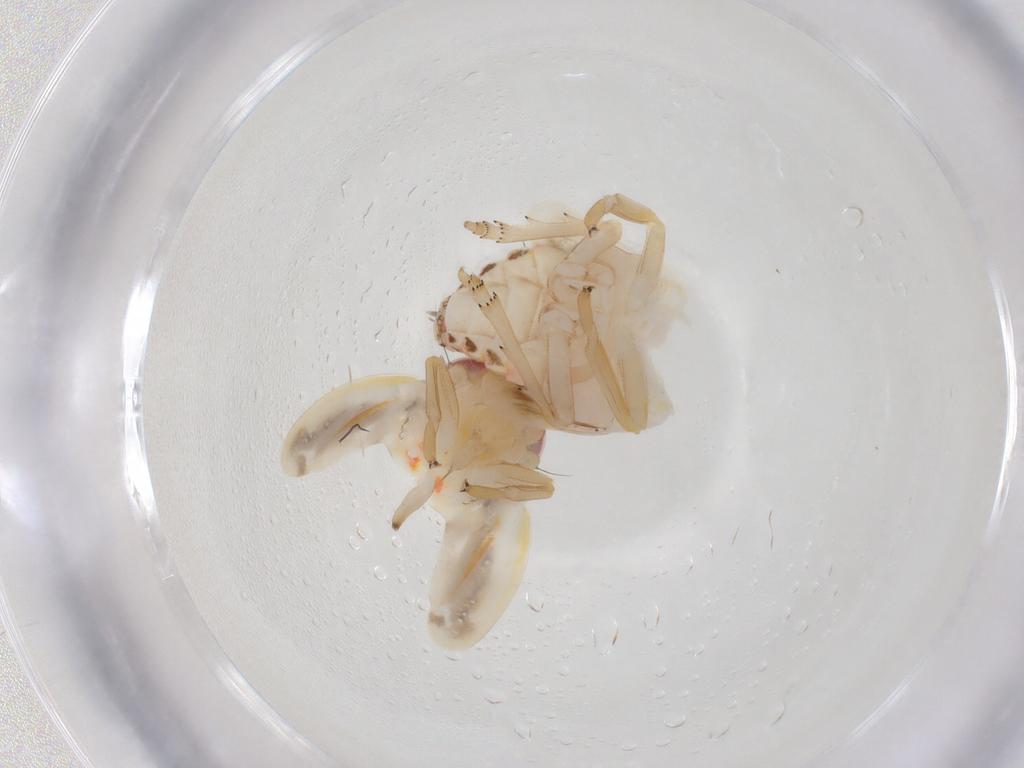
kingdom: Animalia
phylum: Arthropoda
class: Insecta
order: Hemiptera
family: Nogodinidae
